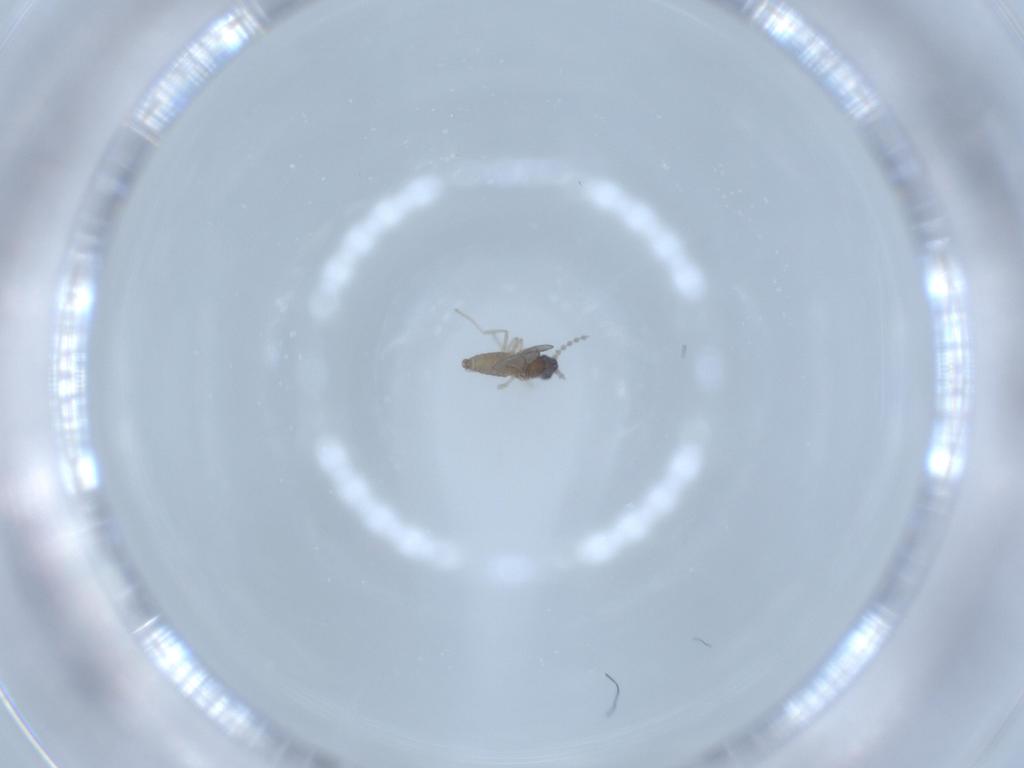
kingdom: Animalia
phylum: Arthropoda
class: Insecta
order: Diptera
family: Cecidomyiidae
